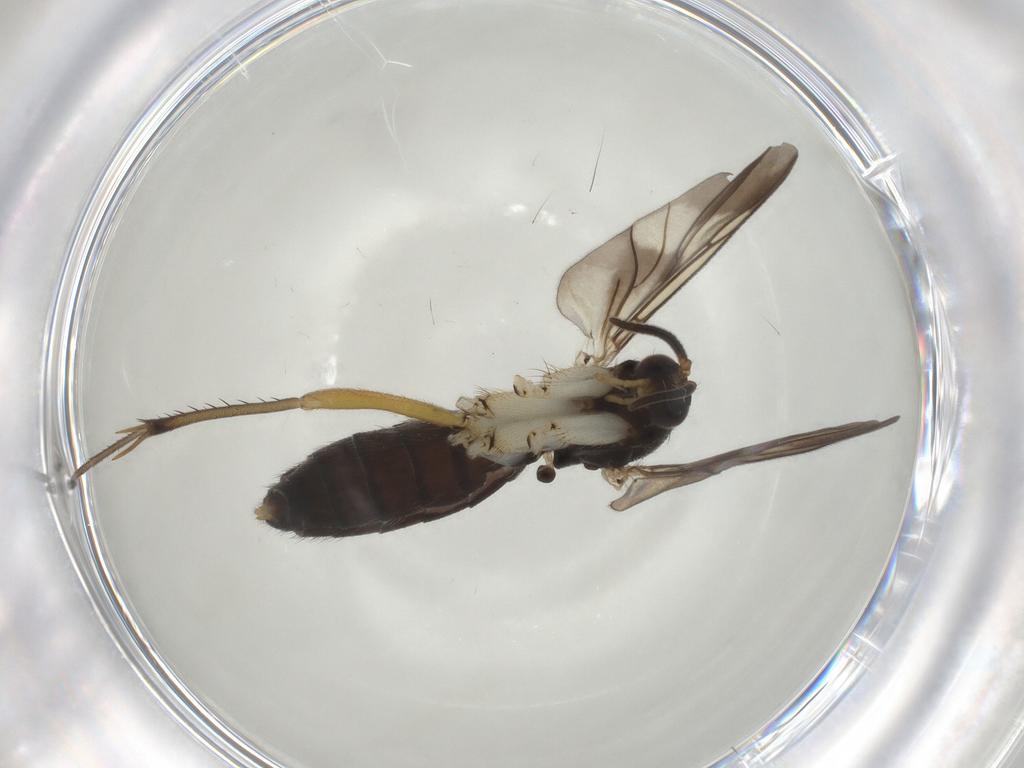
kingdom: Animalia
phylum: Arthropoda
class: Insecta
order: Diptera
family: Mycetophilidae
